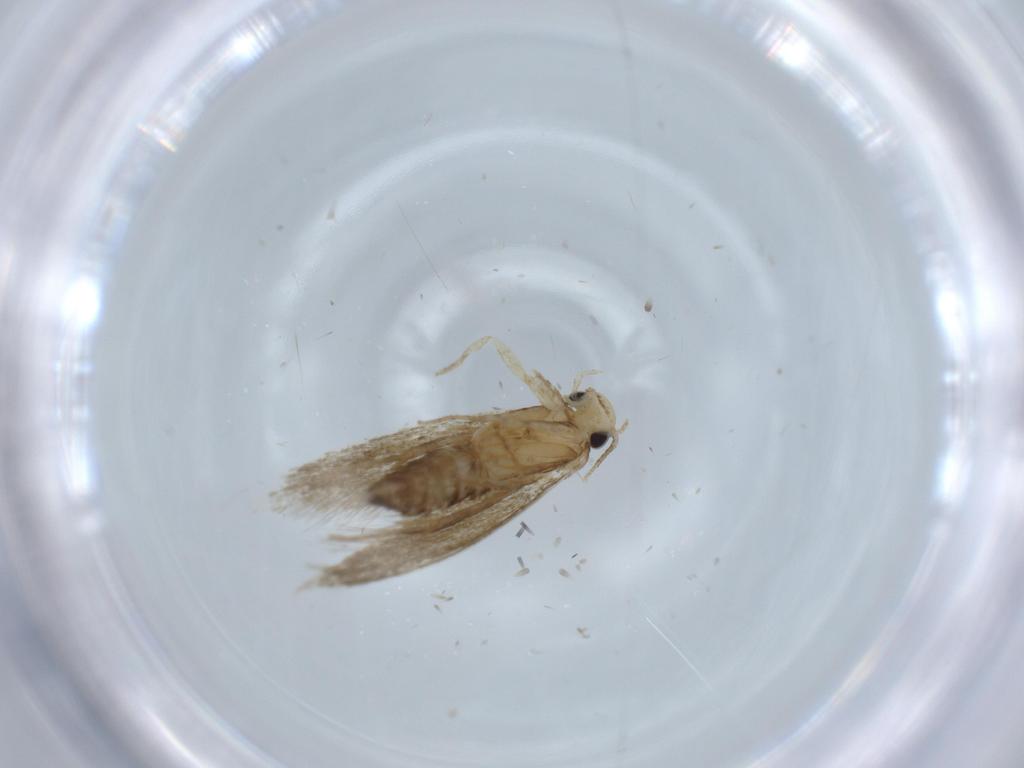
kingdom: Animalia
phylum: Arthropoda
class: Insecta
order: Lepidoptera
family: Tineidae
